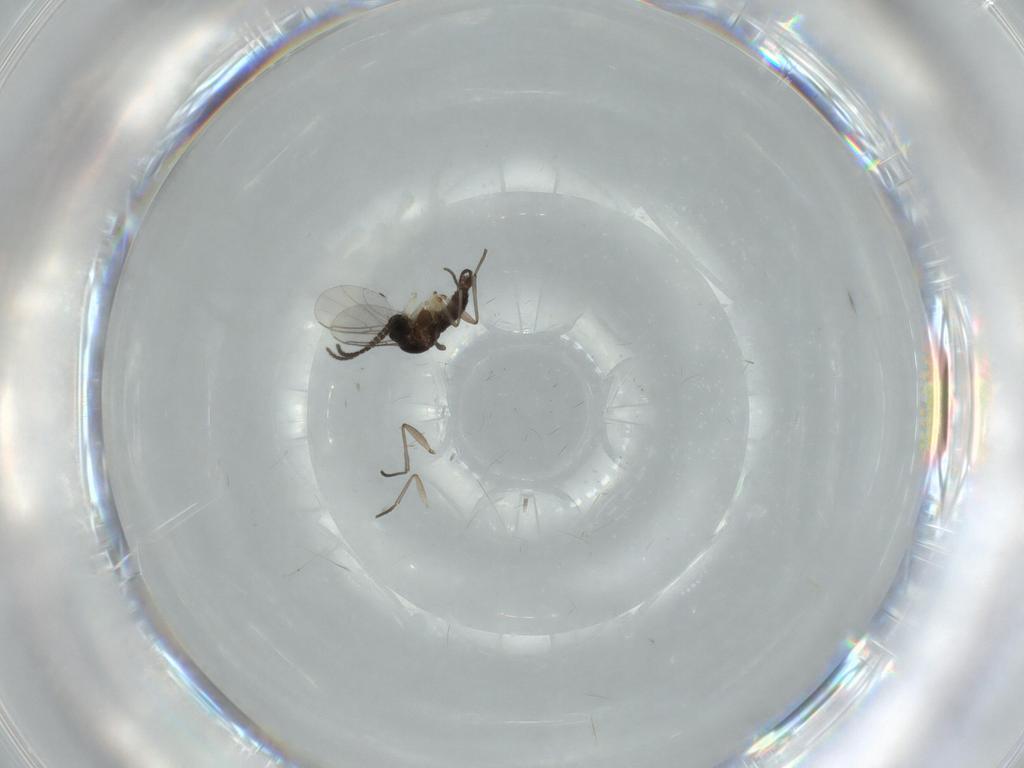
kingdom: Animalia
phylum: Arthropoda
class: Insecta
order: Diptera
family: Sciaridae
